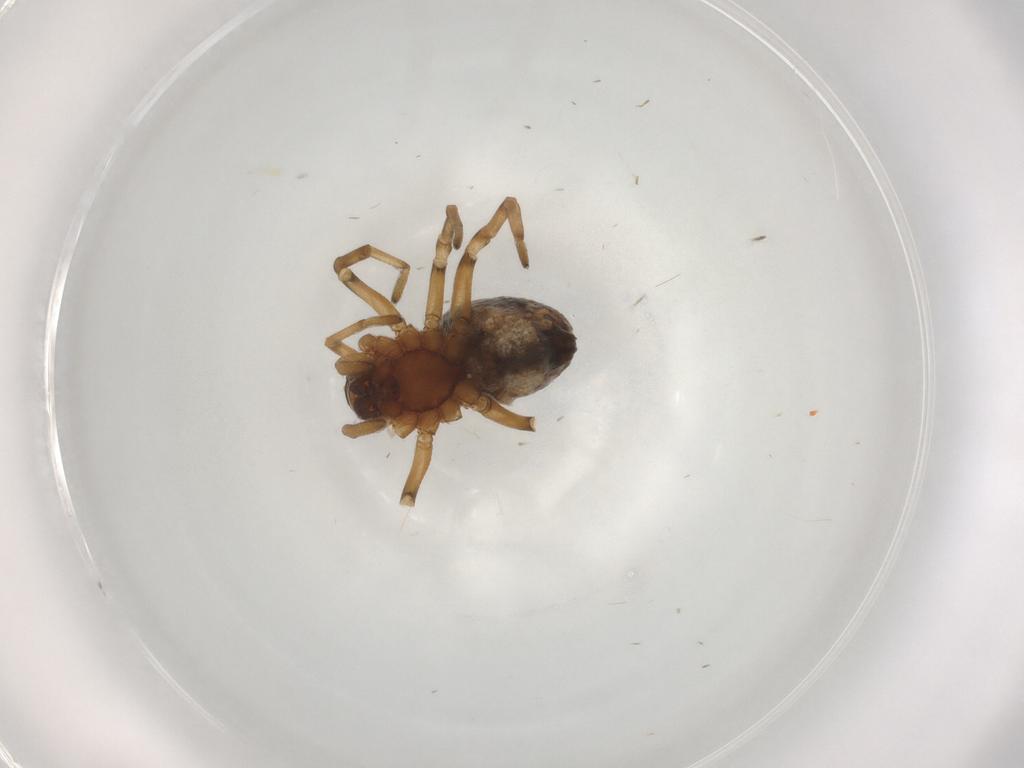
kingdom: Animalia
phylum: Arthropoda
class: Arachnida
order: Araneae
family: Dictynidae
